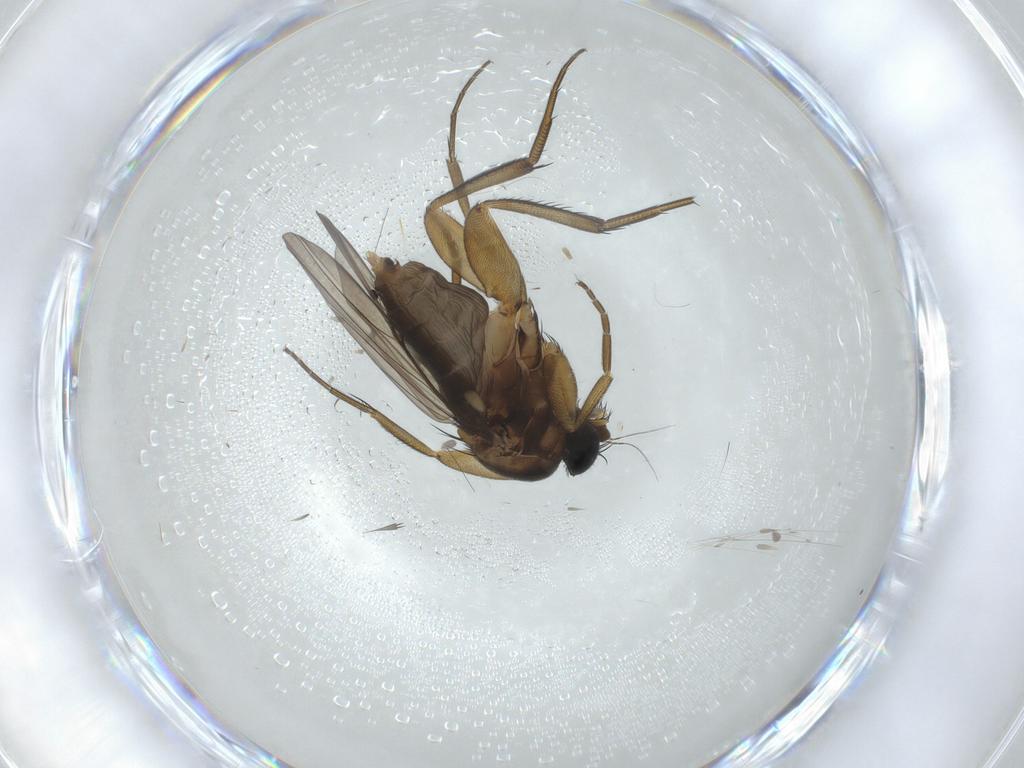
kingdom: Animalia
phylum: Arthropoda
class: Insecta
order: Diptera
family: Phoridae
